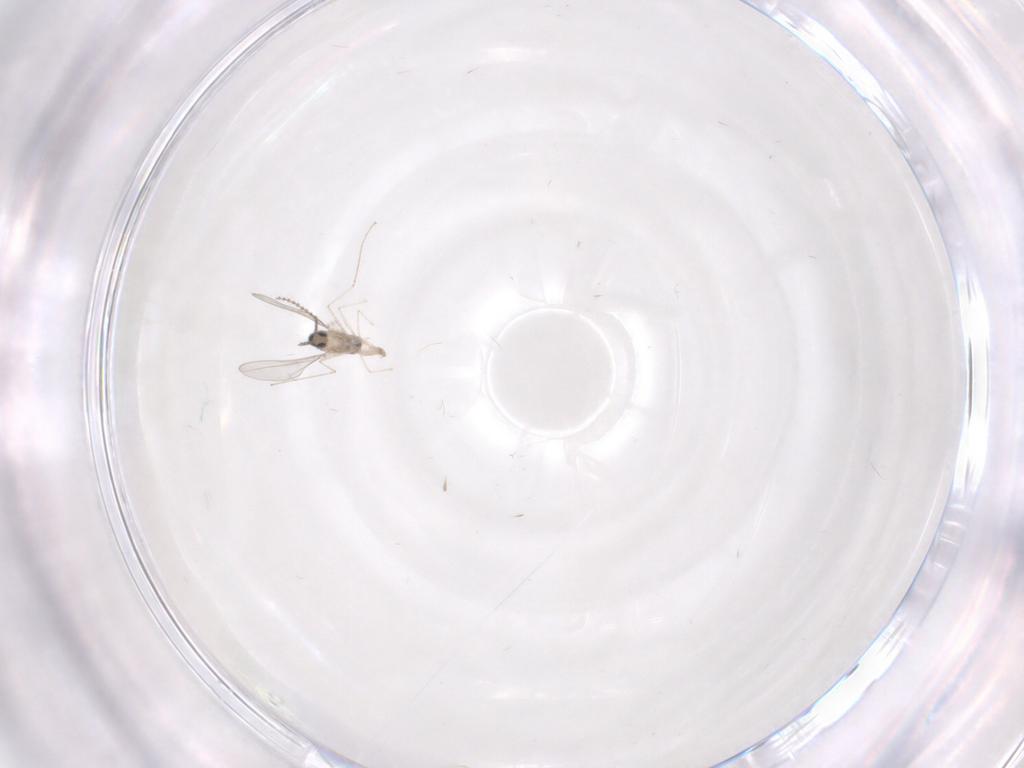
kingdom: Animalia
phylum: Arthropoda
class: Insecta
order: Diptera
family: Cecidomyiidae
